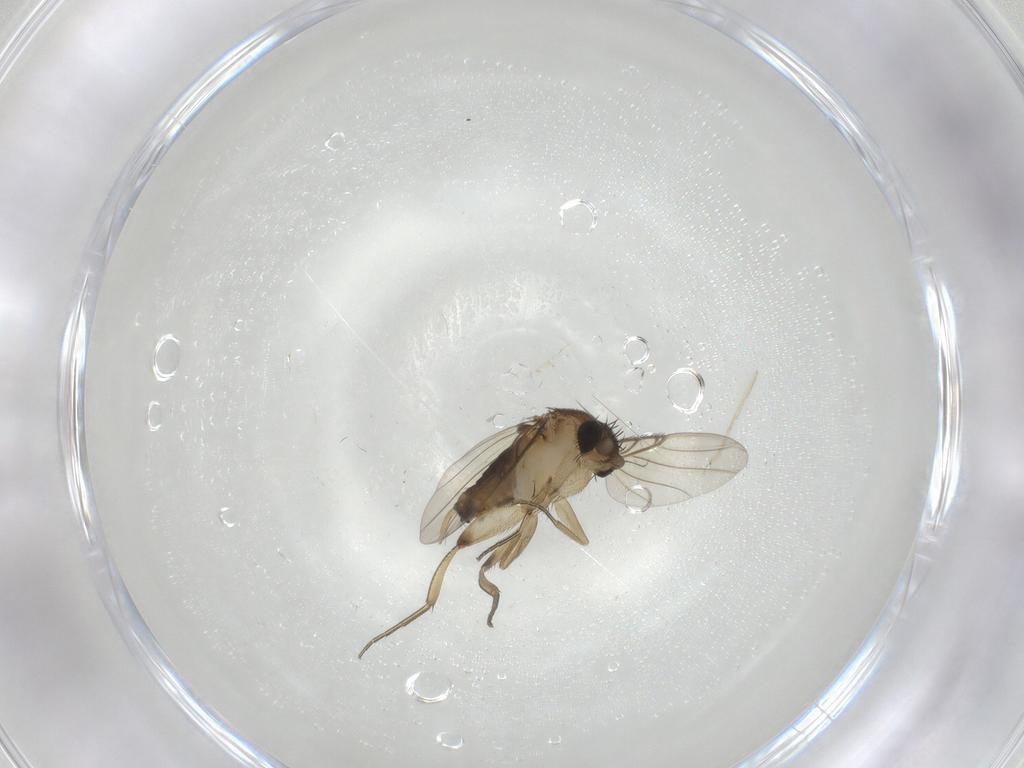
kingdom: Animalia
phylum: Arthropoda
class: Insecta
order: Diptera
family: Phoridae
